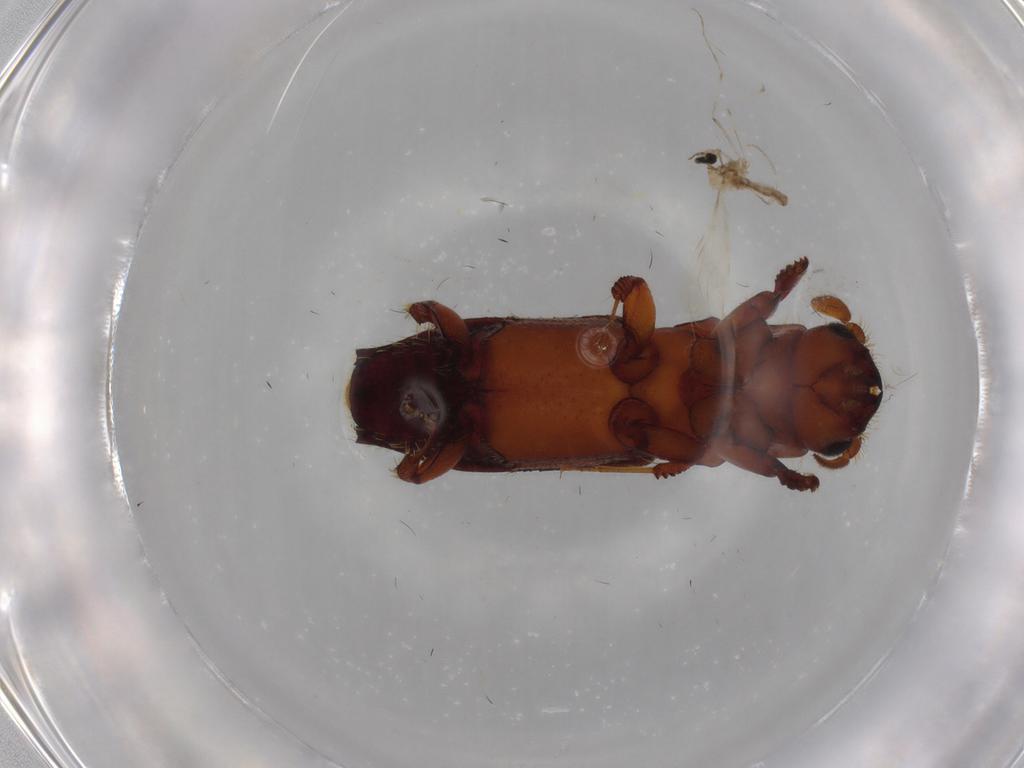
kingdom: Animalia
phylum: Arthropoda
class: Insecta
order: Coleoptera
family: Curculionidae
